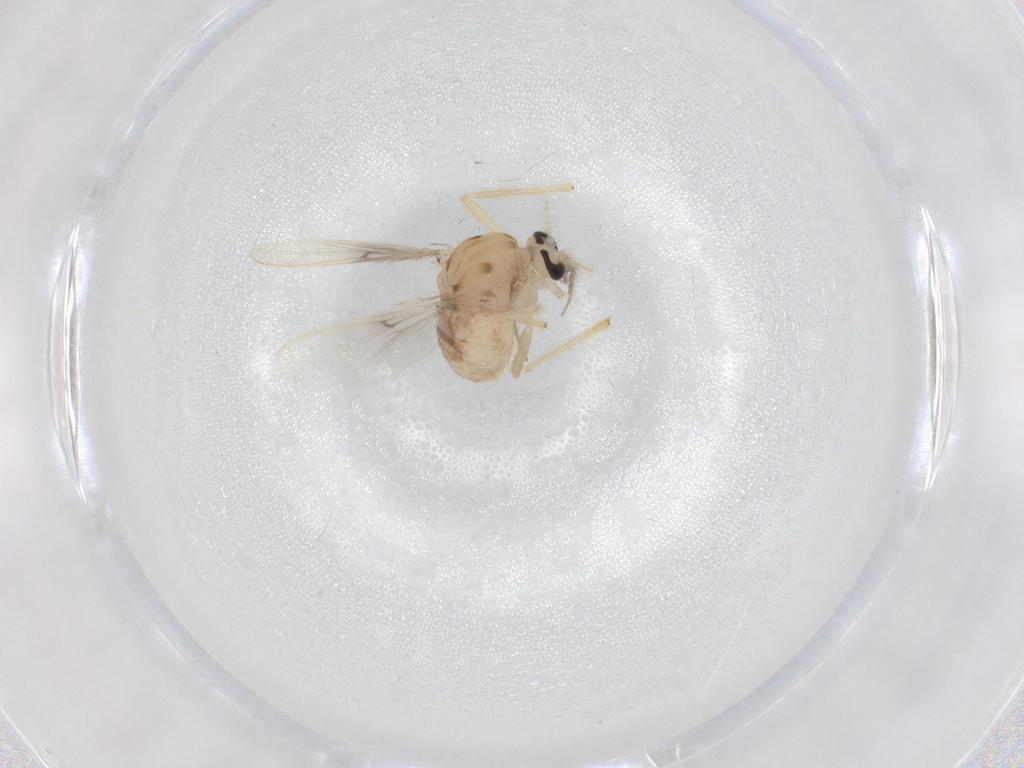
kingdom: Animalia
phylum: Arthropoda
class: Insecta
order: Diptera
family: Chironomidae
